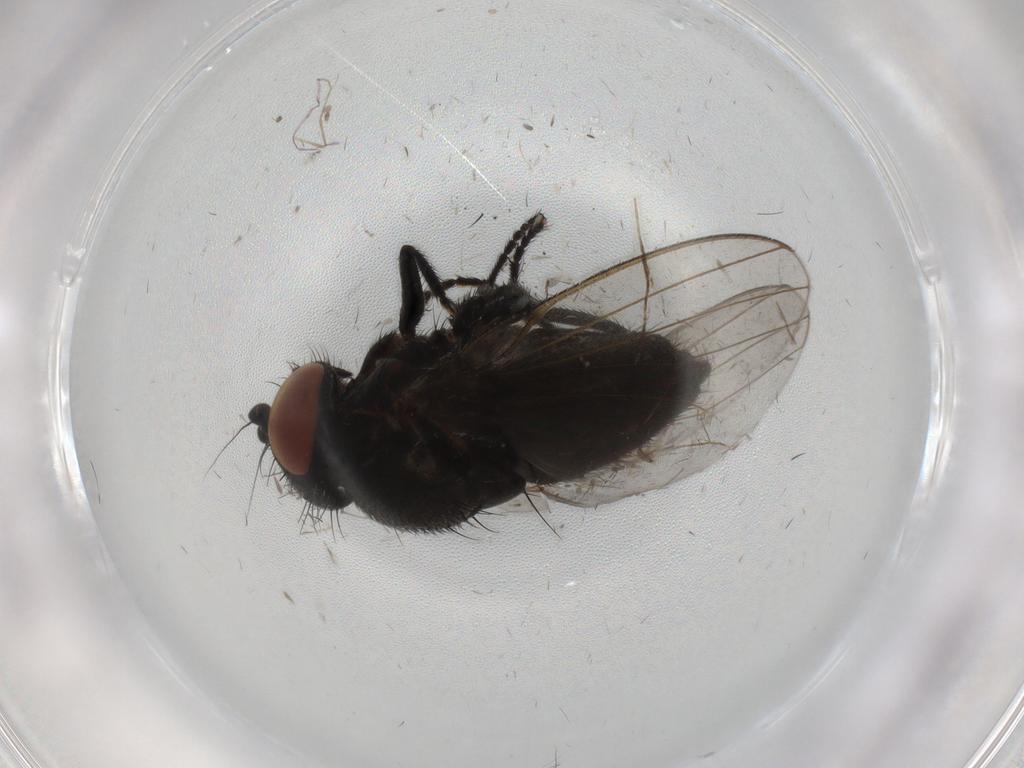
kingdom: Animalia
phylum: Arthropoda
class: Insecta
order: Diptera
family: Milichiidae
